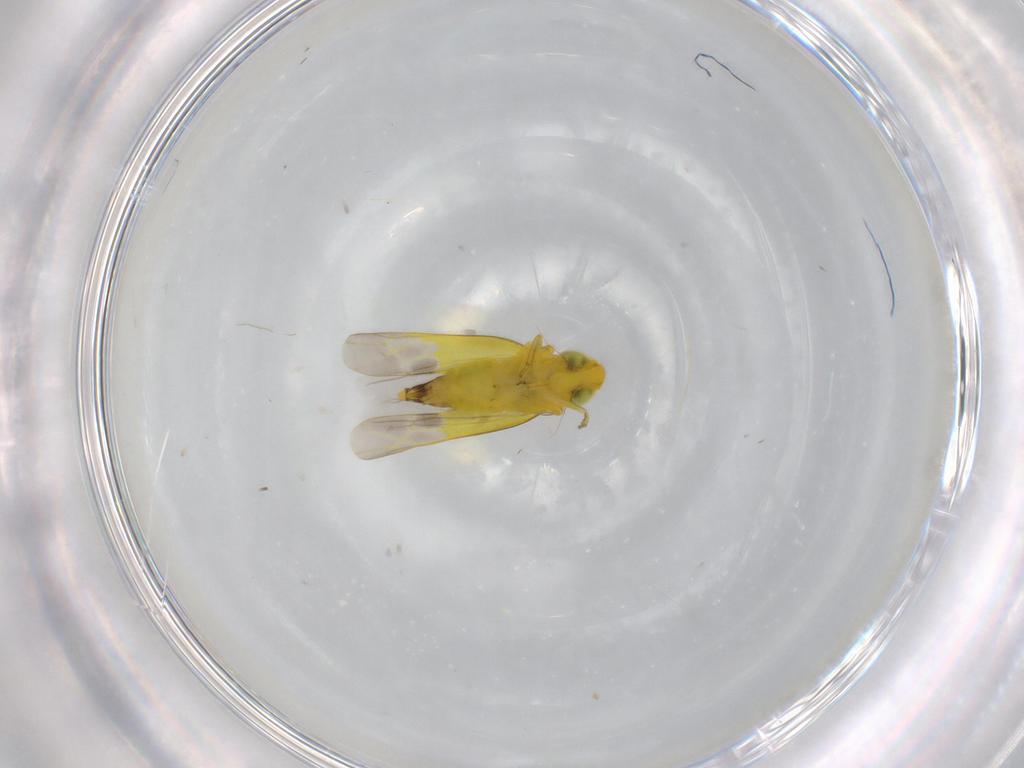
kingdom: Animalia
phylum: Arthropoda
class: Insecta
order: Hemiptera
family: Cicadellidae
